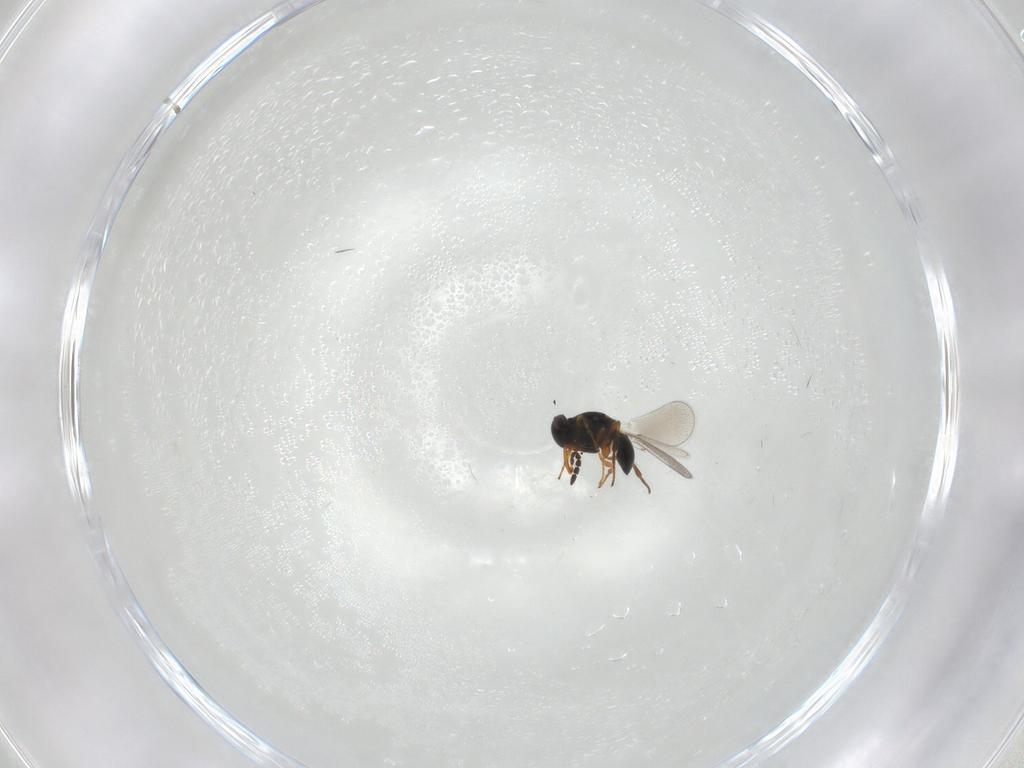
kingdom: Animalia
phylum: Arthropoda
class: Insecta
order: Hymenoptera
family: Platygastridae
